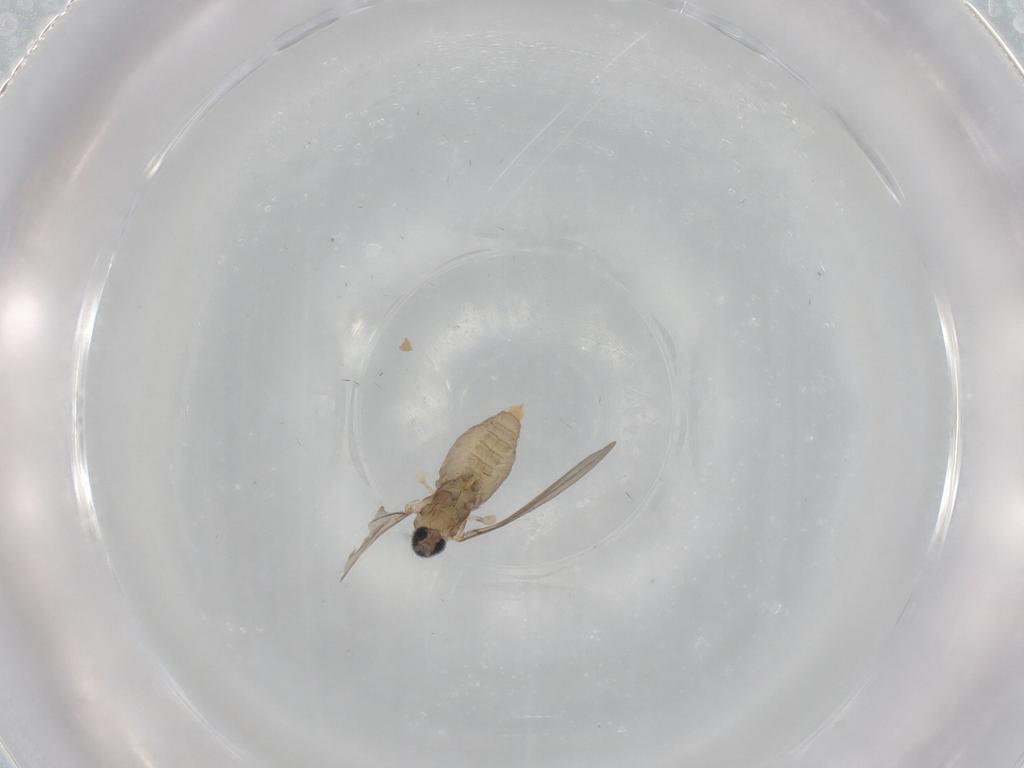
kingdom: Animalia
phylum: Arthropoda
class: Insecta
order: Diptera
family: Cecidomyiidae
